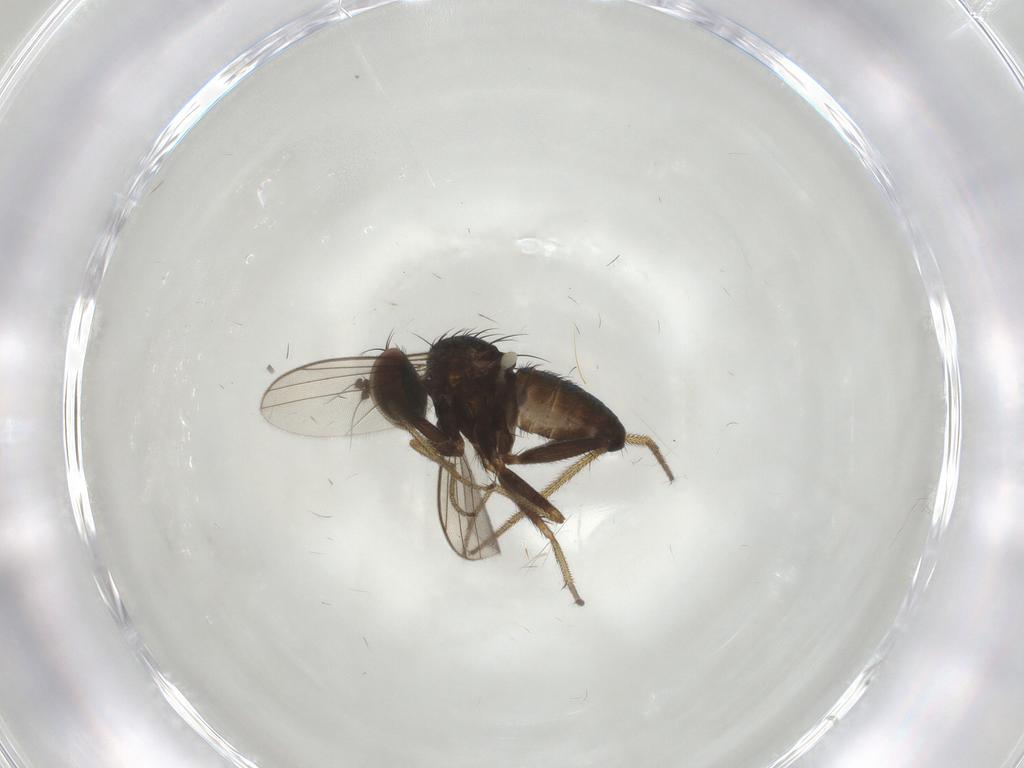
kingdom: Animalia
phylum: Arthropoda
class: Insecta
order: Diptera
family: Dolichopodidae
